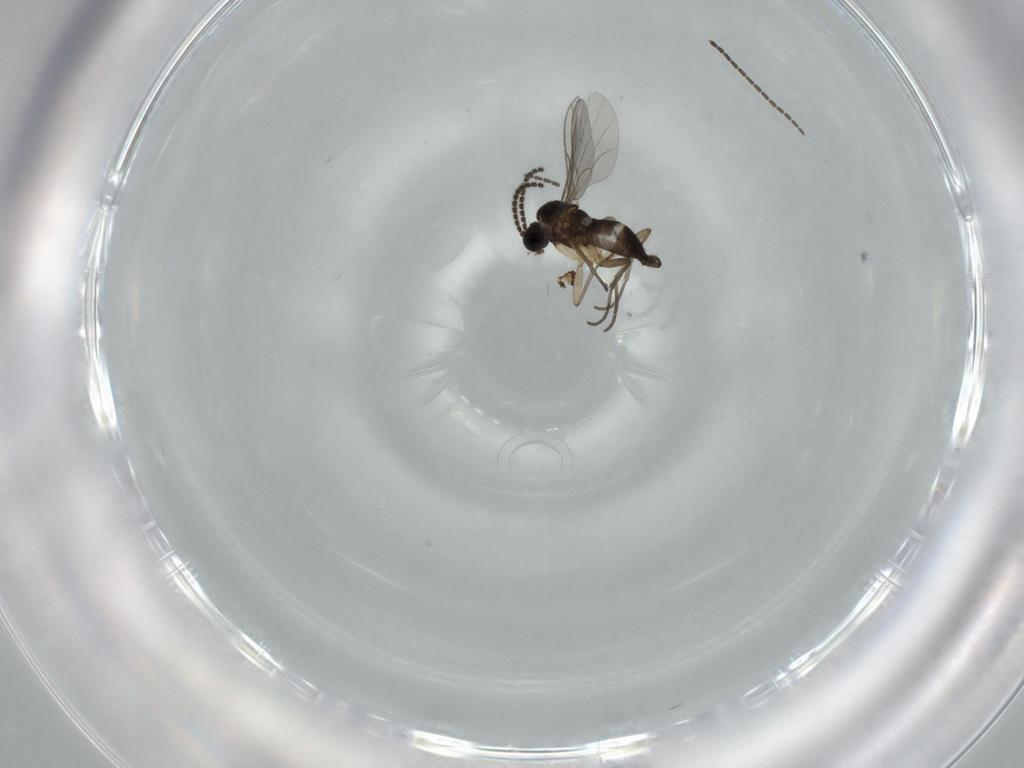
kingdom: Animalia
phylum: Arthropoda
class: Insecta
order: Diptera
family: Sciaridae
